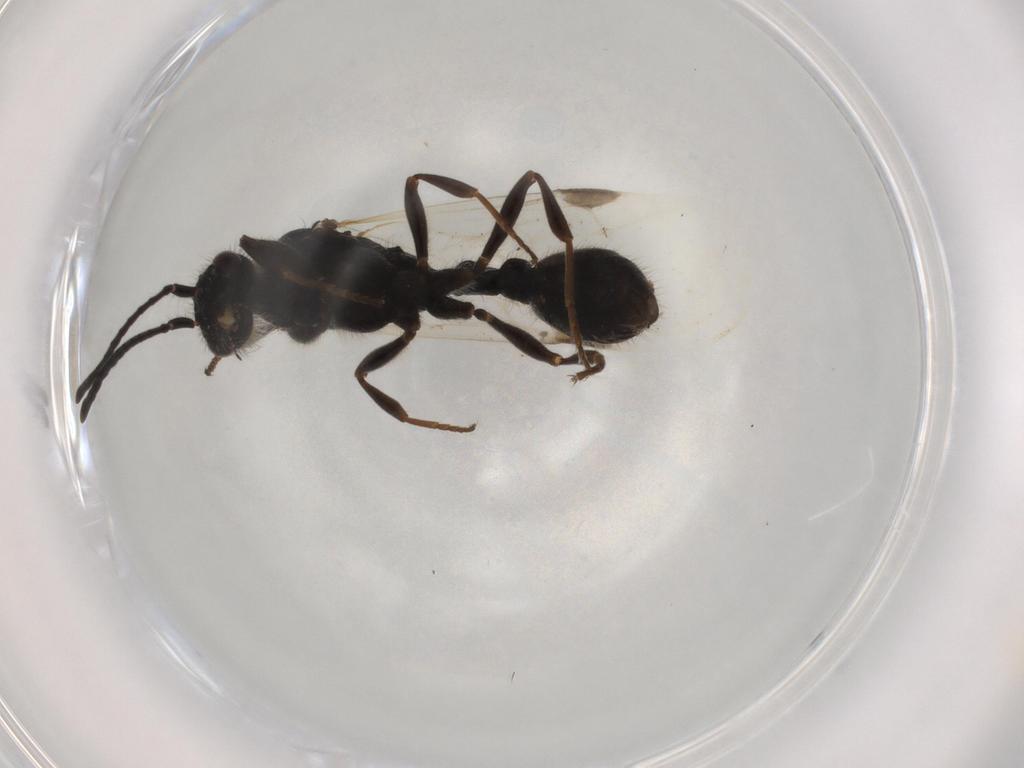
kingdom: Animalia
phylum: Arthropoda
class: Insecta
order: Hymenoptera
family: Formicidae
